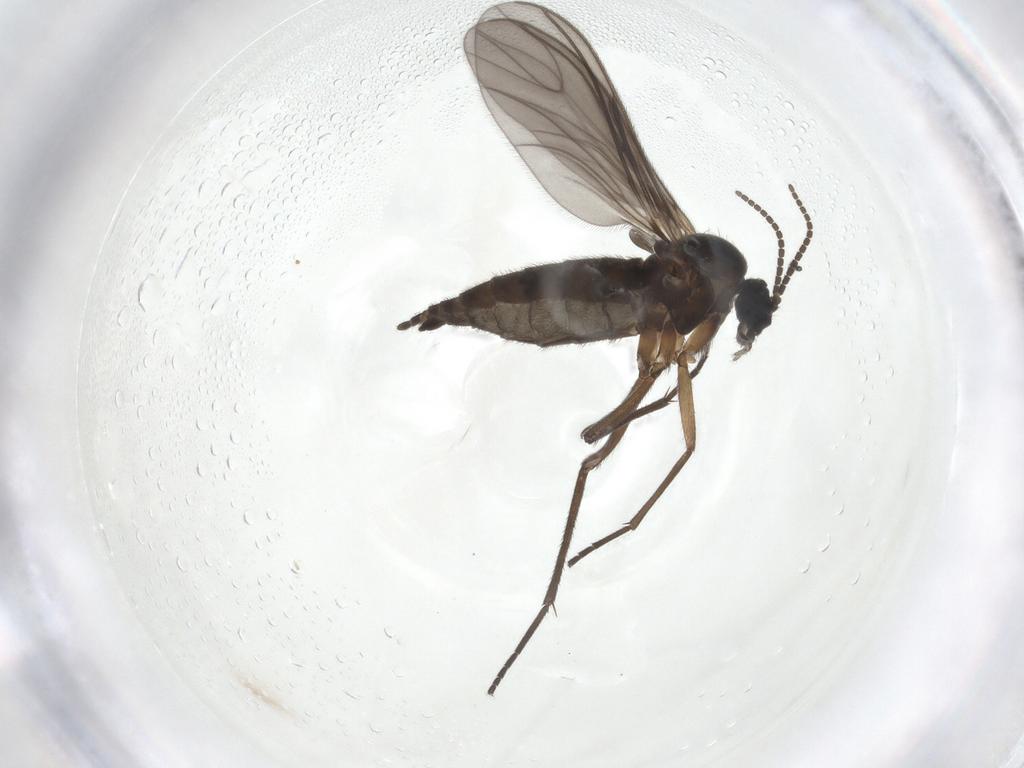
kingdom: Animalia
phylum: Arthropoda
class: Insecta
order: Diptera
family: Sciaridae
